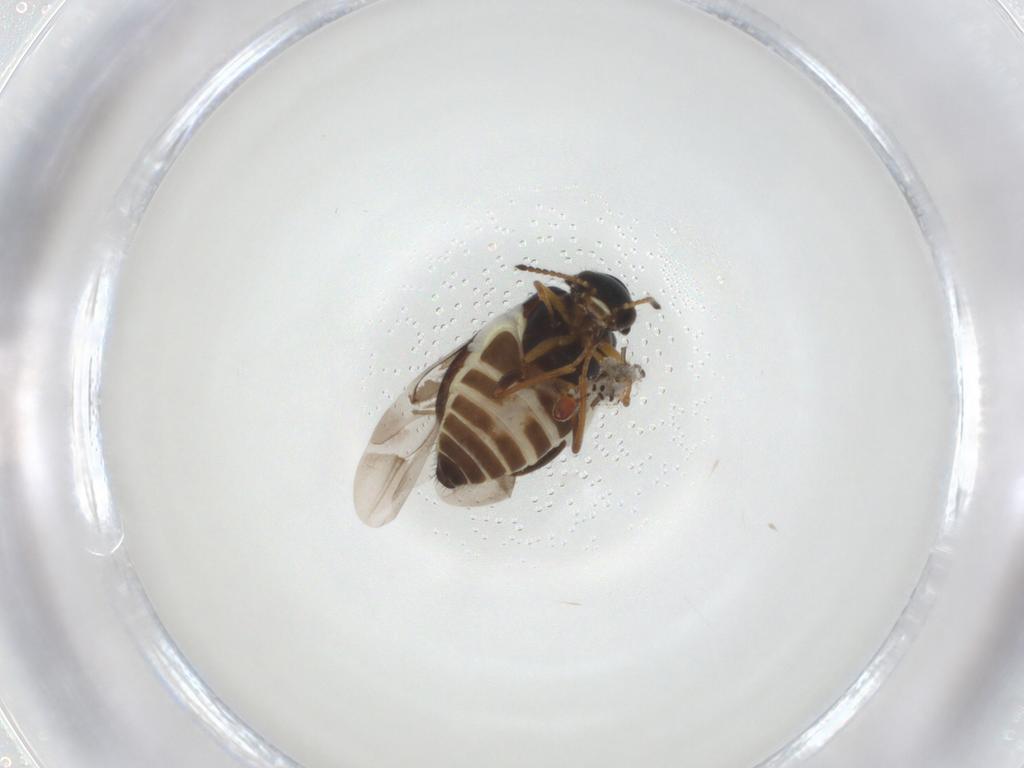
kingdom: Animalia
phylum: Arthropoda
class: Insecta
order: Coleoptera
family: Melyridae
